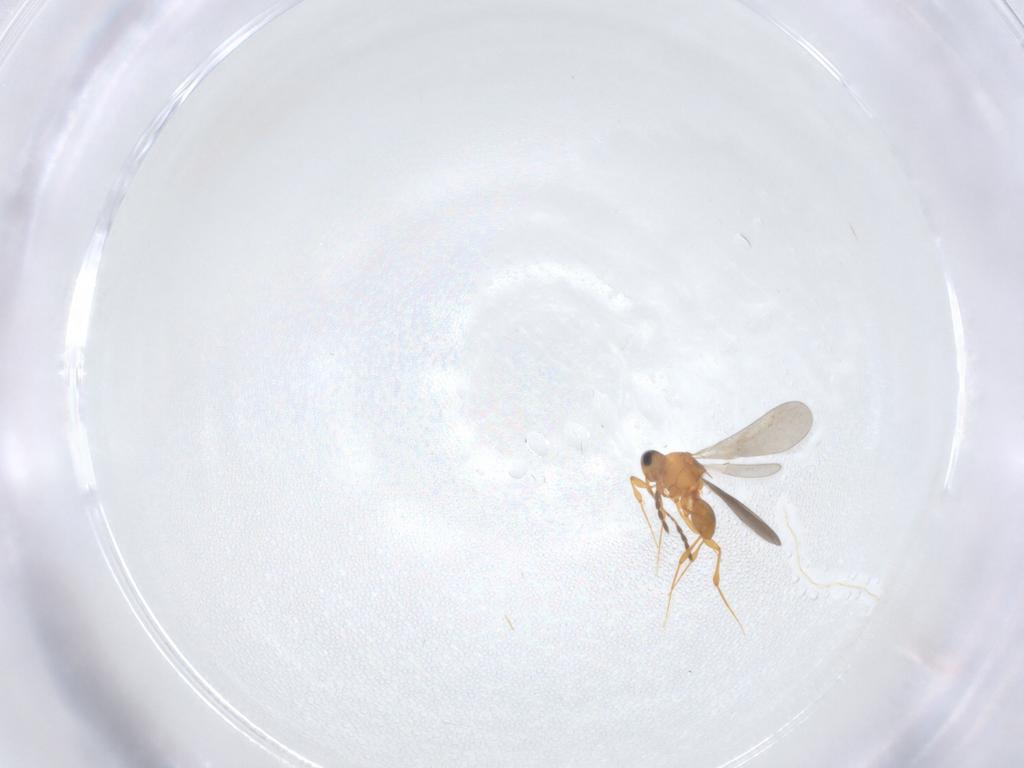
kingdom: Animalia
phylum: Arthropoda
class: Insecta
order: Hymenoptera
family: Platygastridae
